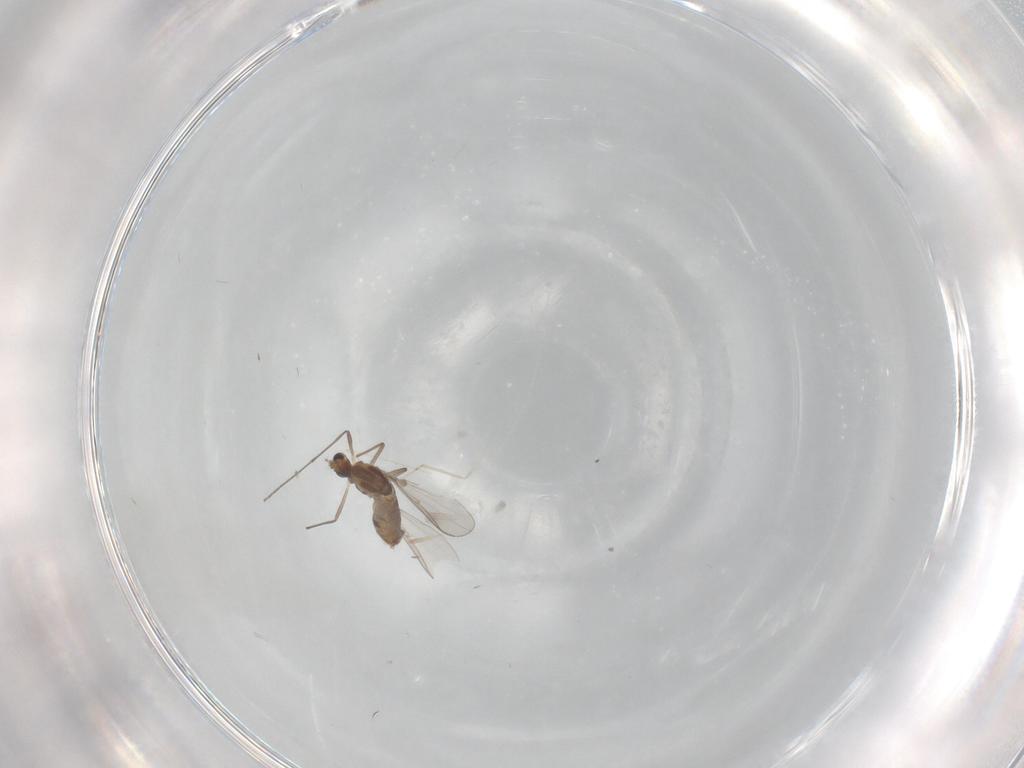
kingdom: Animalia
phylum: Arthropoda
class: Insecta
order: Diptera
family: Chironomidae
